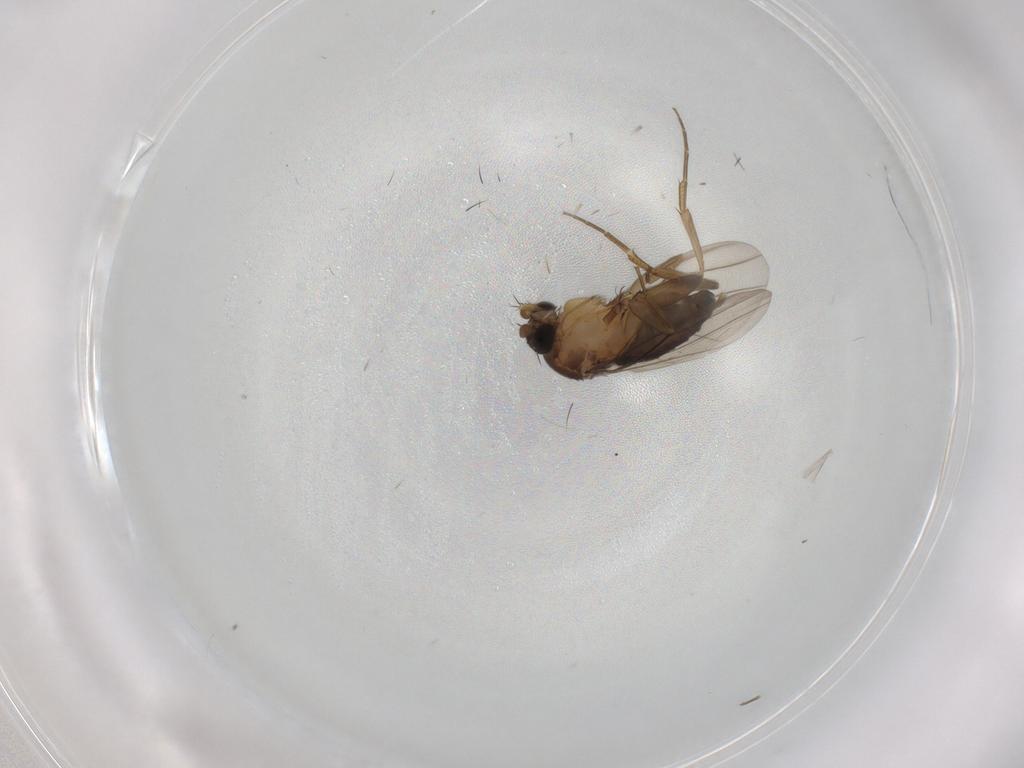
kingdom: Animalia
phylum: Arthropoda
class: Insecta
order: Diptera
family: Phoridae
